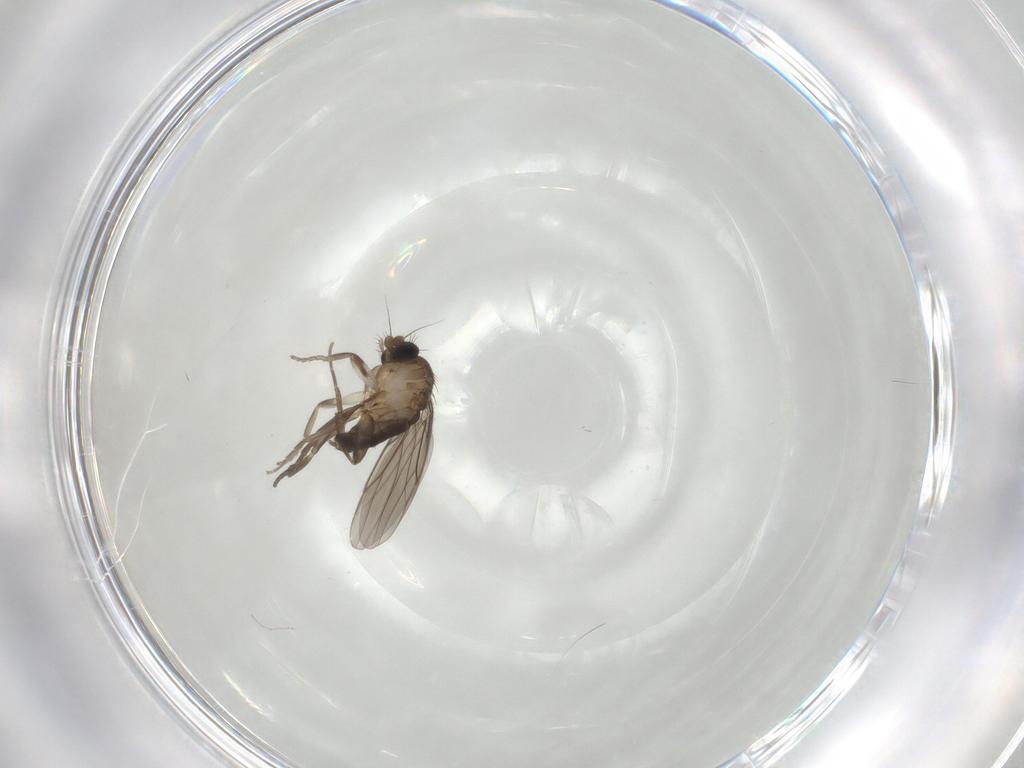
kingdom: Animalia
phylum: Arthropoda
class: Insecta
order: Diptera
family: Cecidomyiidae
